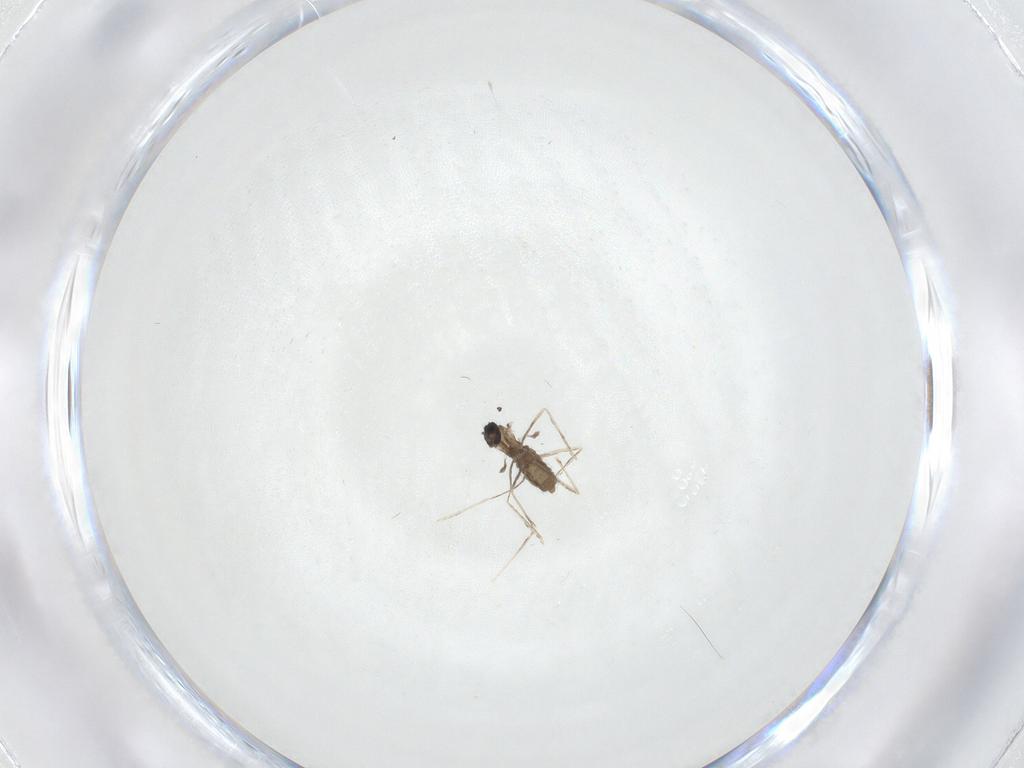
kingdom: Animalia
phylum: Arthropoda
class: Insecta
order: Diptera
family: Cecidomyiidae
